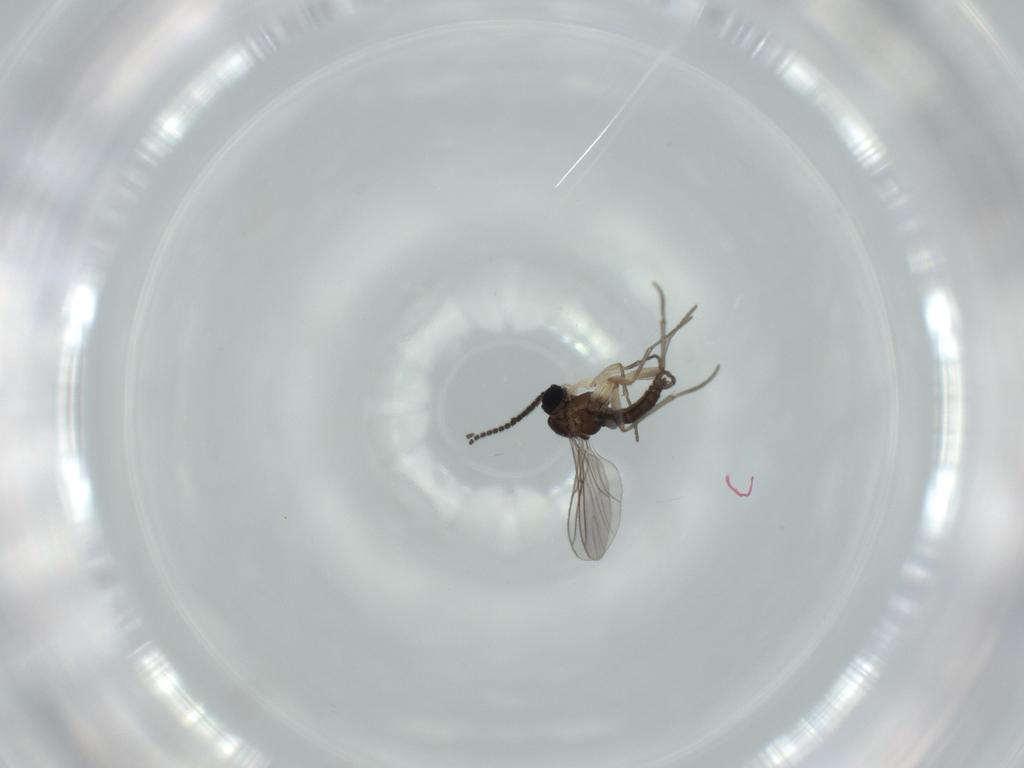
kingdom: Animalia
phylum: Arthropoda
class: Insecta
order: Diptera
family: Sciaridae
